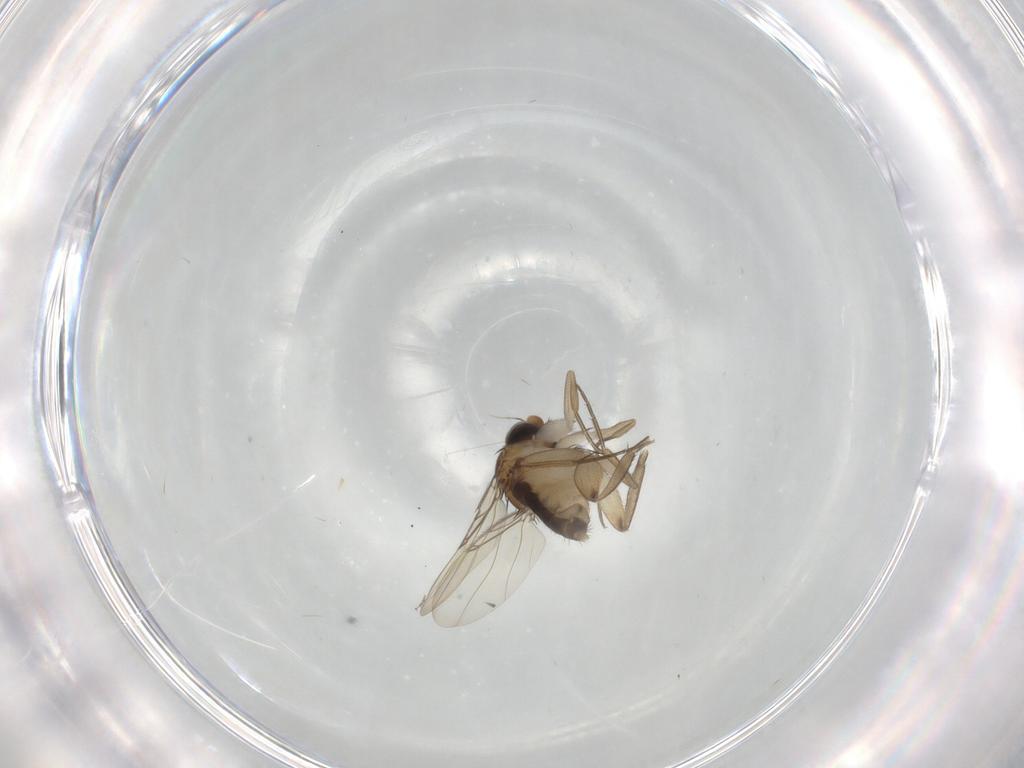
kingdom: Animalia
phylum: Arthropoda
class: Insecta
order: Diptera
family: Phoridae
